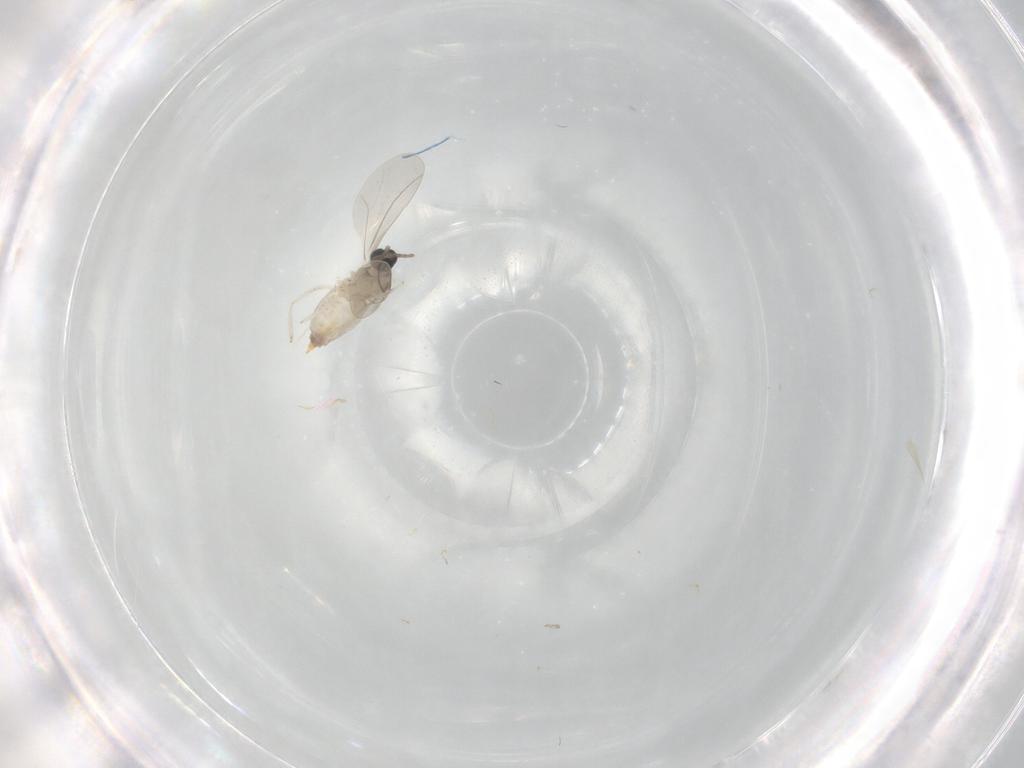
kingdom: Animalia
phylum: Arthropoda
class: Insecta
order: Diptera
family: Cecidomyiidae
